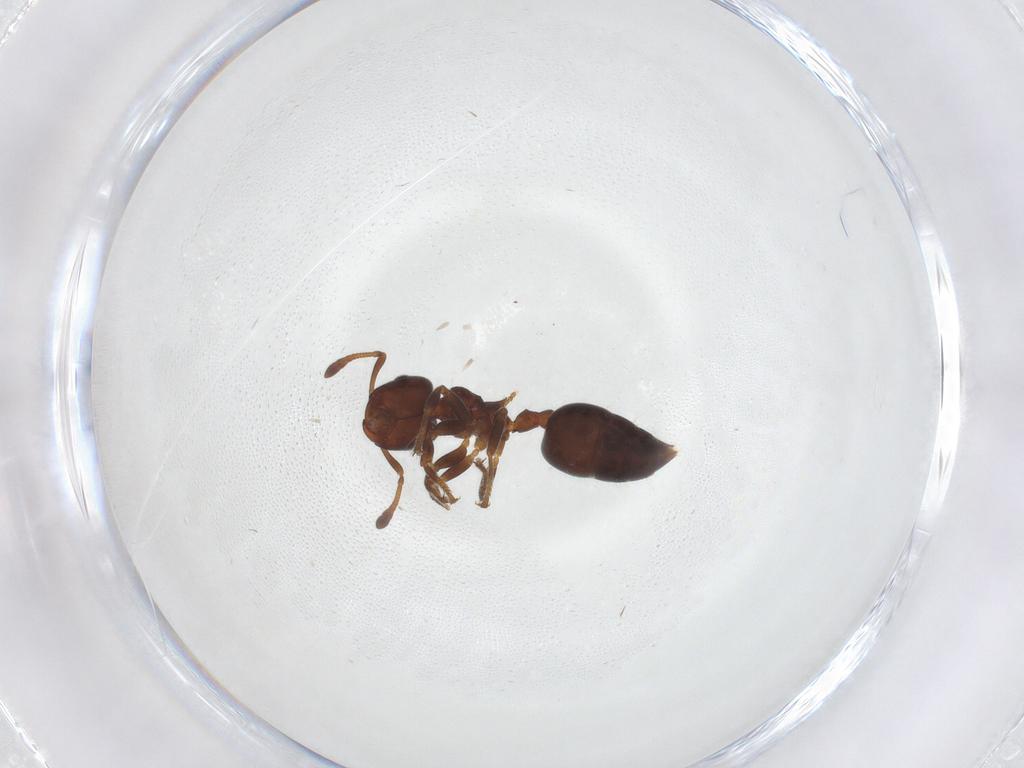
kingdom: Animalia
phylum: Arthropoda
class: Insecta
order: Hymenoptera
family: Formicidae
